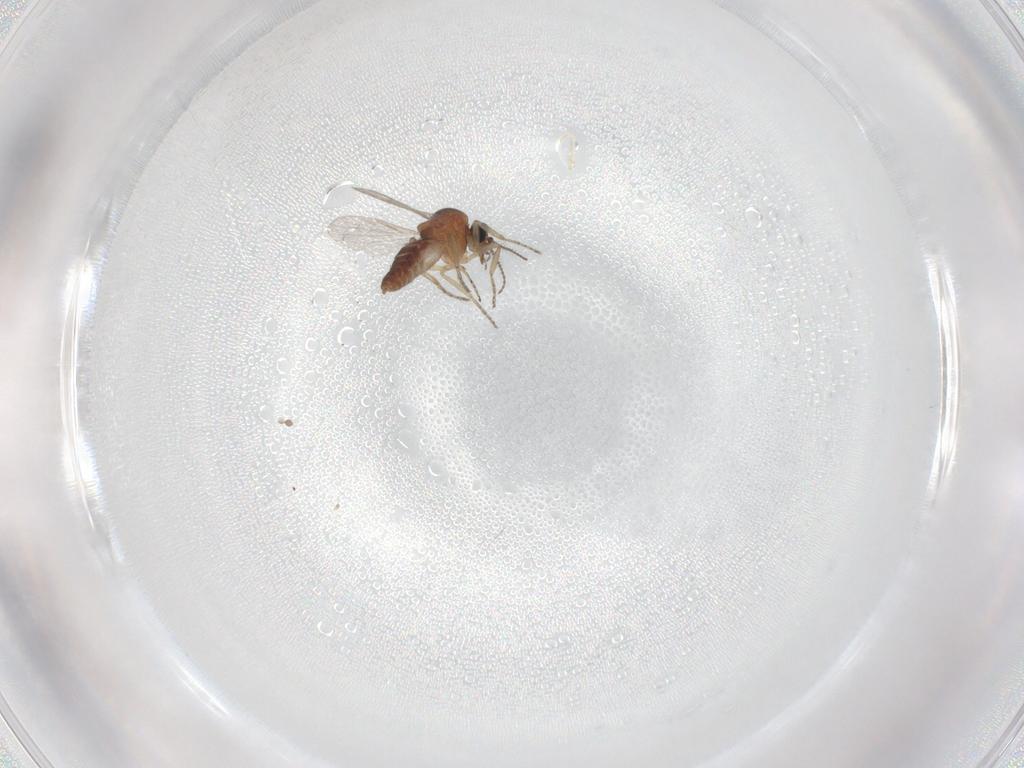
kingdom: Animalia
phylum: Arthropoda
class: Insecta
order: Diptera
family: Ceratopogonidae
